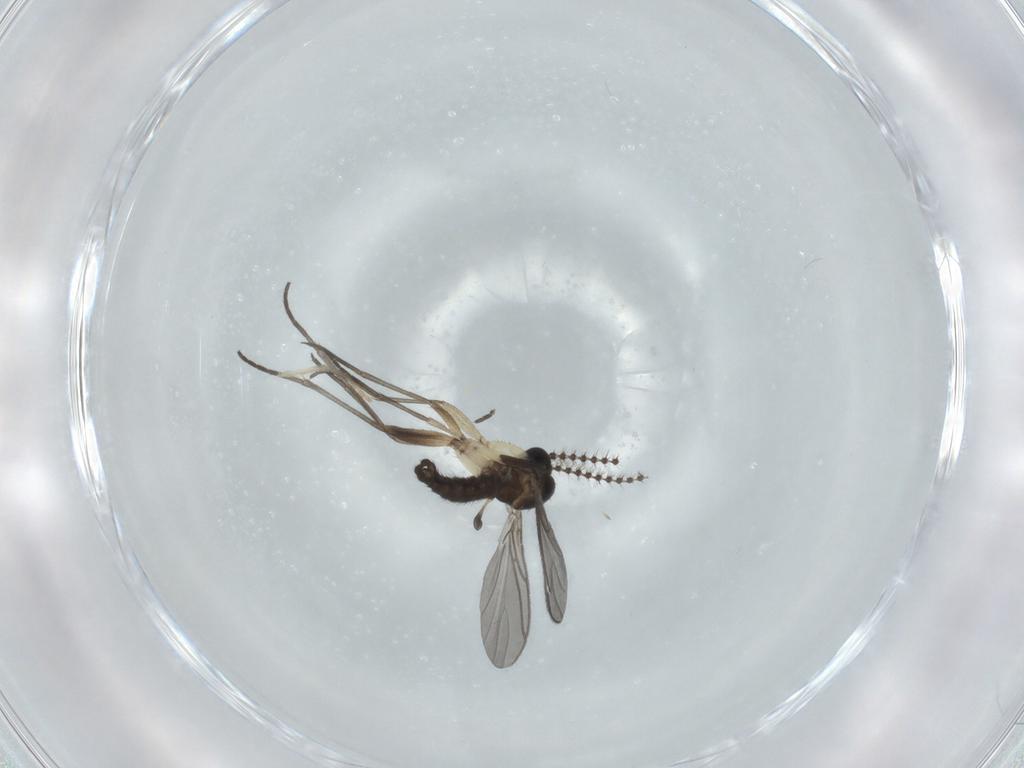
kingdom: Animalia
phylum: Arthropoda
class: Insecta
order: Diptera
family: Sciaridae
